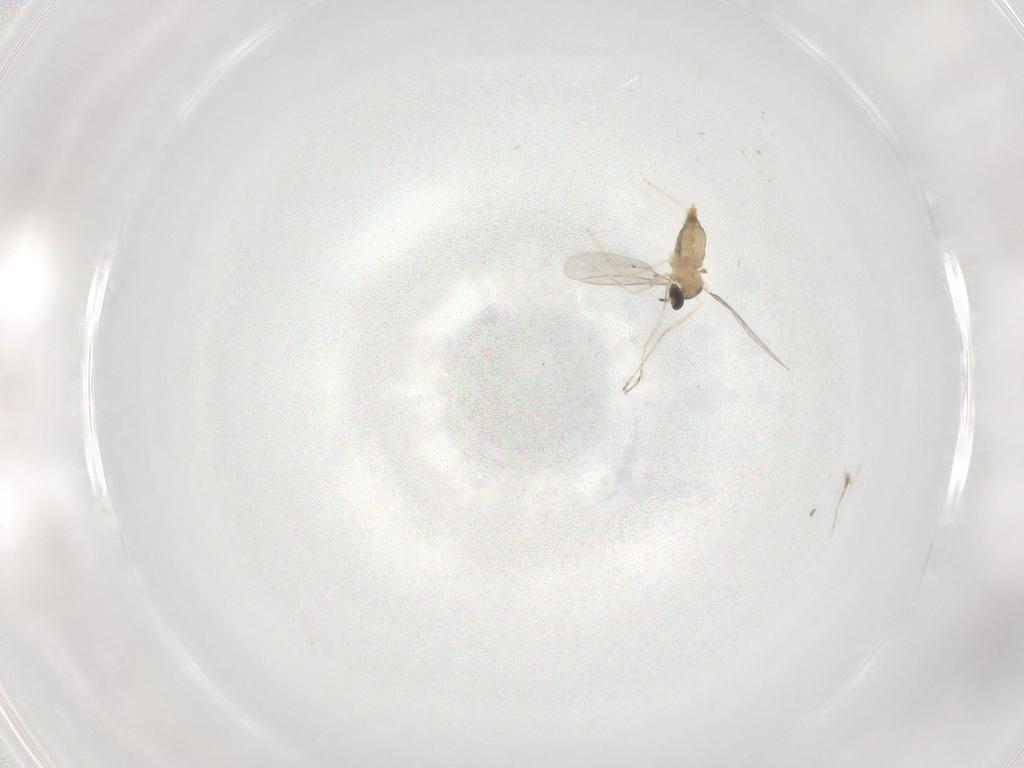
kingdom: Animalia
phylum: Arthropoda
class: Insecta
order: Diptera
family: Cecidomyiidae
